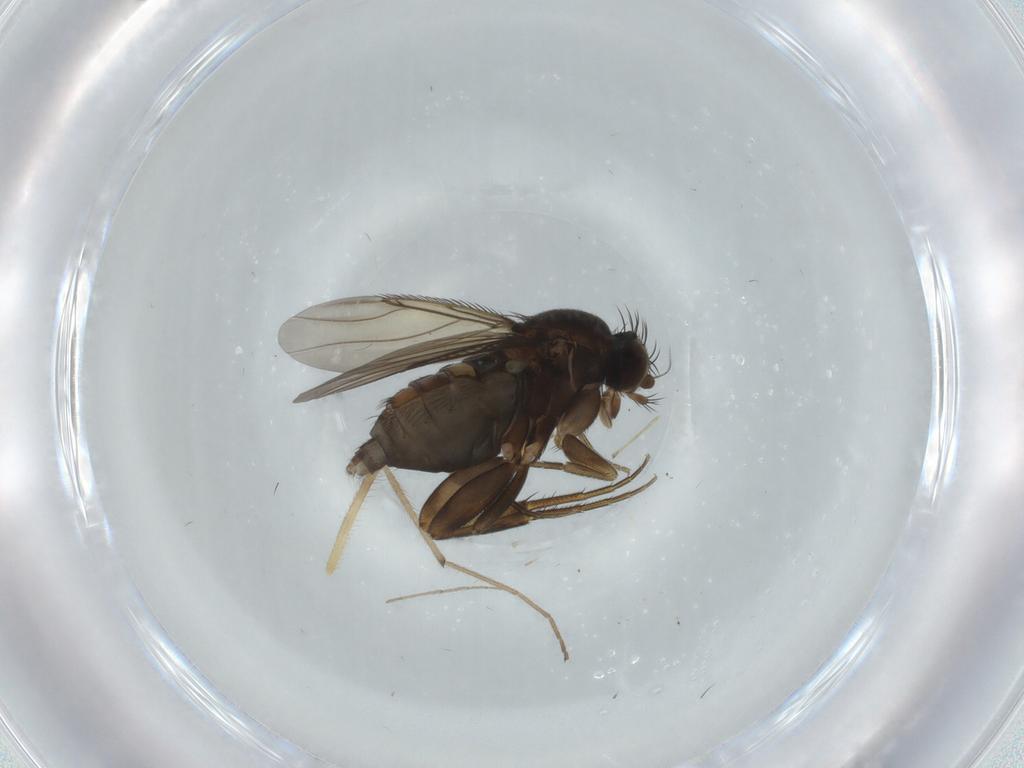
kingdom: Animalia
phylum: Arthropoda
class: Insecta
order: Diptera
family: Phoridae
